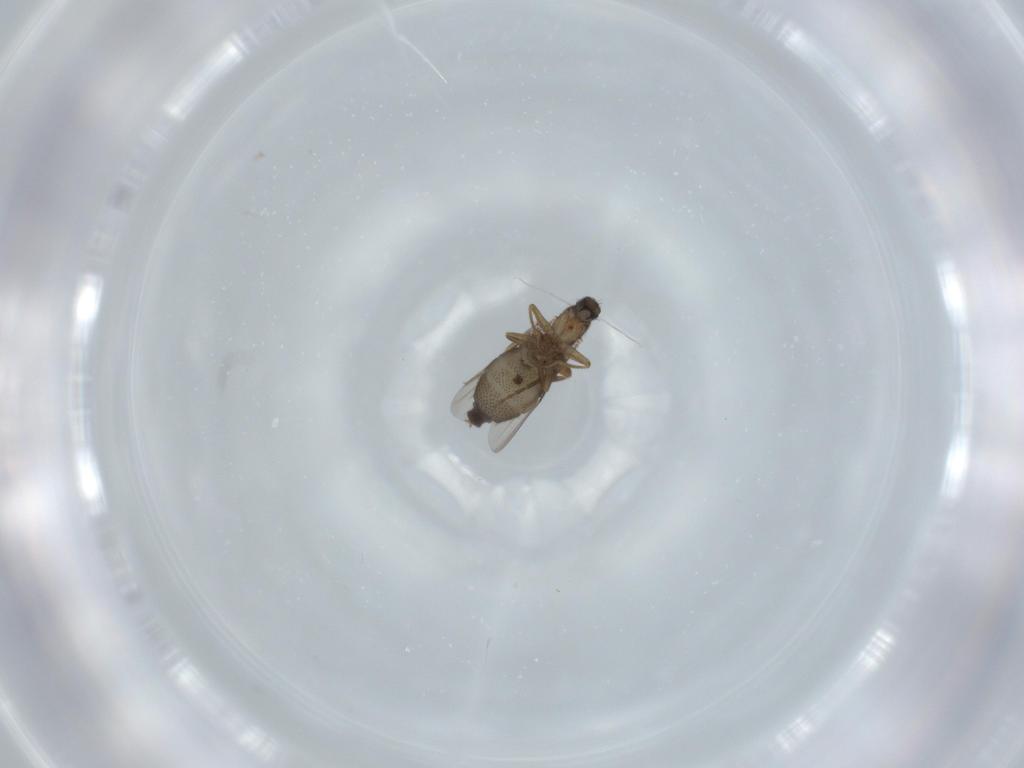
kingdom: Animalia
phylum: Arthropoda
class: Insecta
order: Diptera
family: Phoridae
